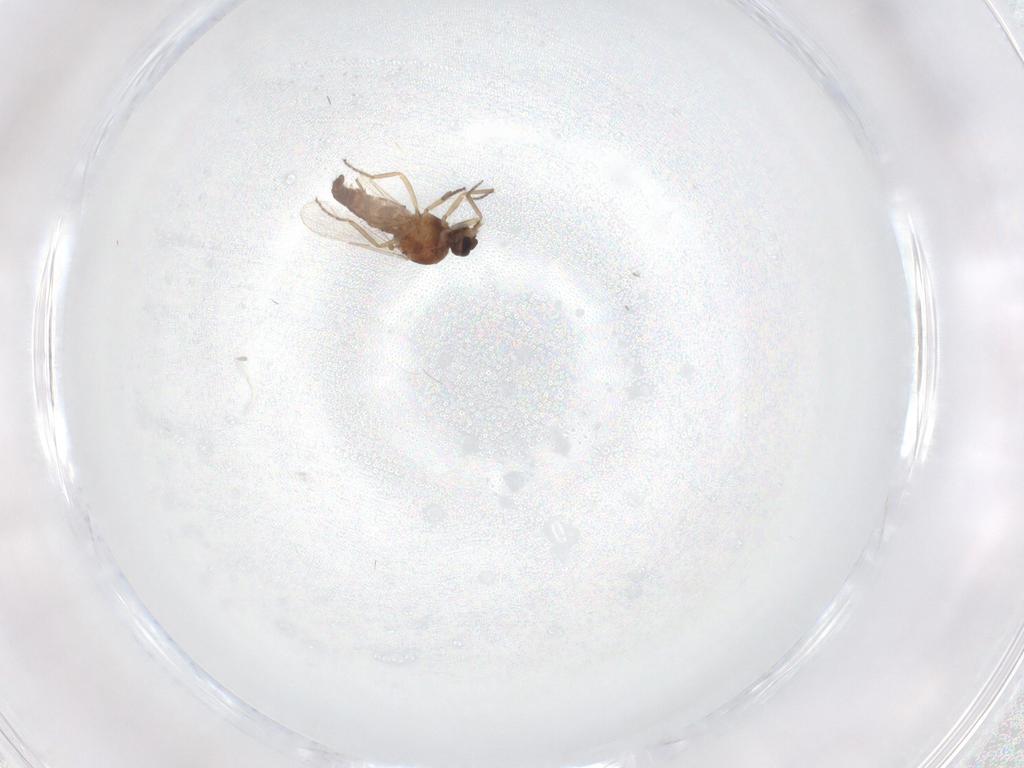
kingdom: Animalia
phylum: Arthropoda
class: Insecta
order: Diptera
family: Ceratopogonidae
